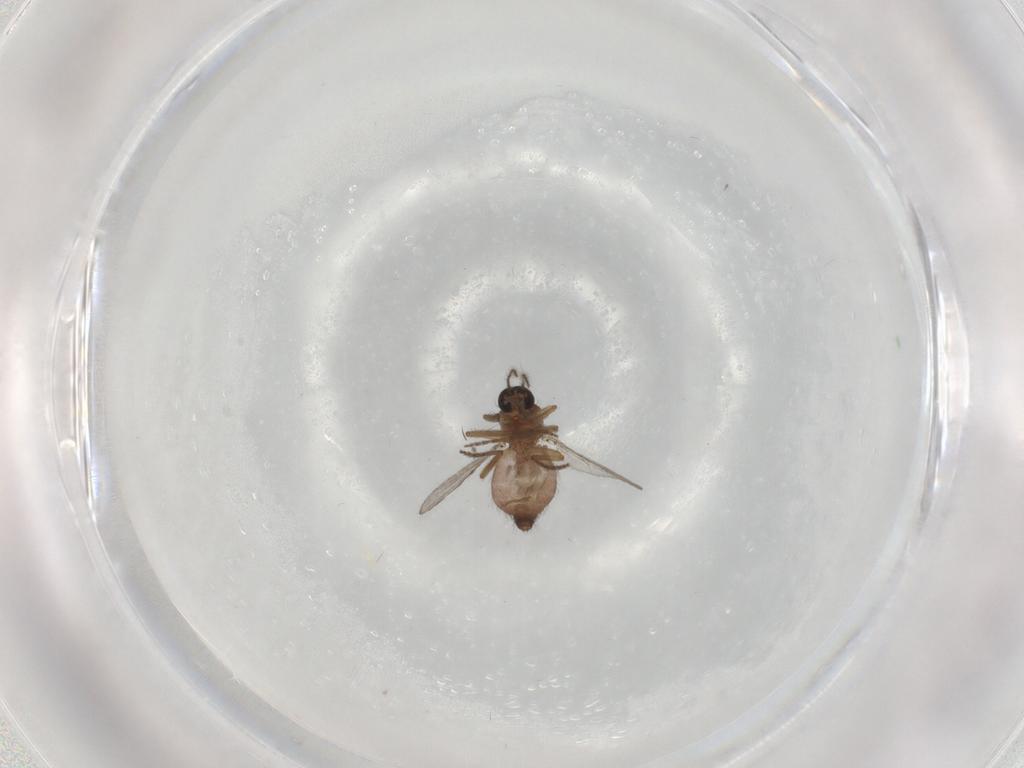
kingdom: Animalia
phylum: Arthropoda
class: Insecta
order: Diptera
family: Ceratopogonidae
